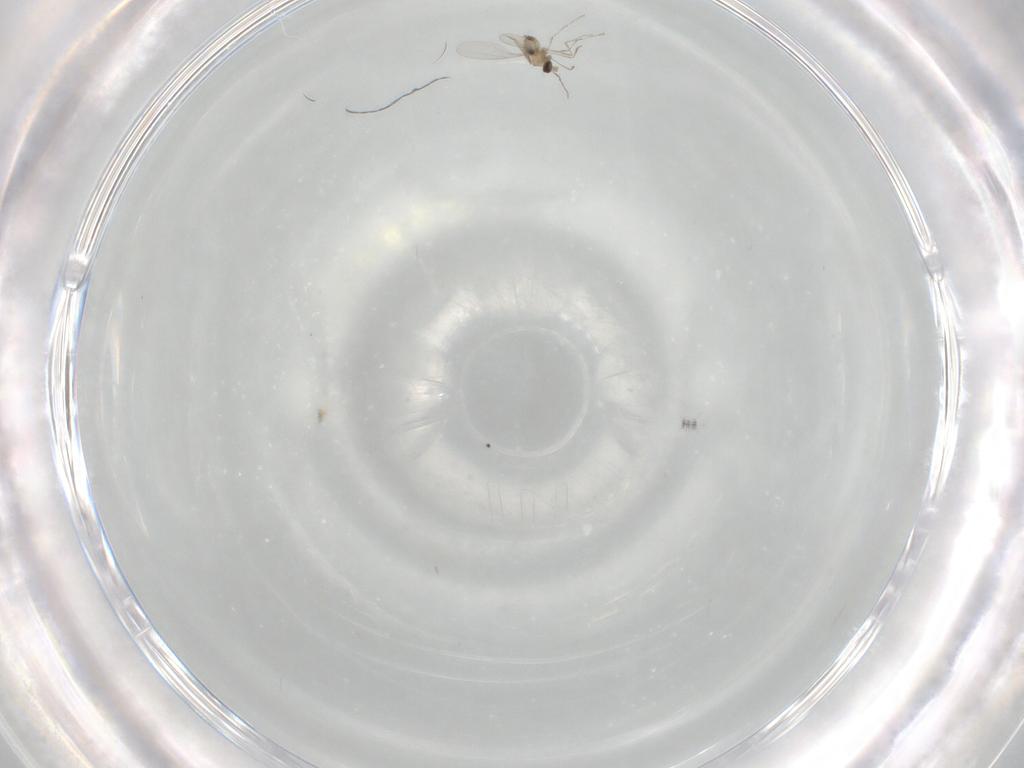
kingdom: Animalia
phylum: Arthropoda
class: Insecta
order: Diptera
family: Cecidomyiidae
